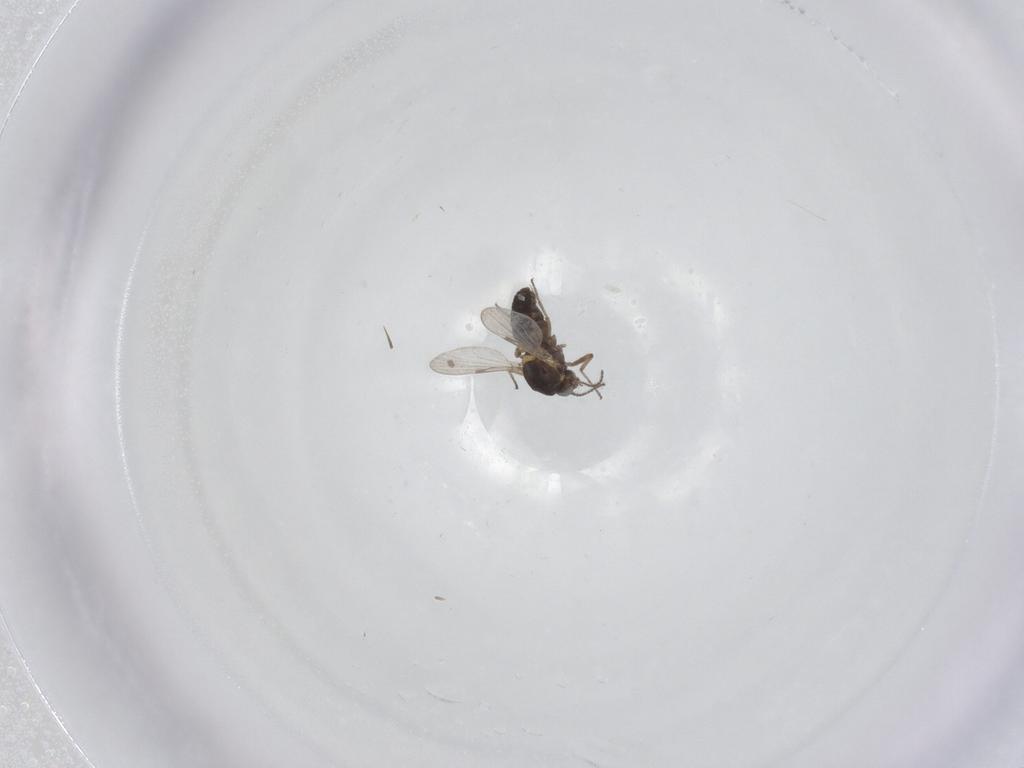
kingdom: Animalia
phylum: Arthropoda
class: Insecta
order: Diptera
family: Ceratopogonidae
